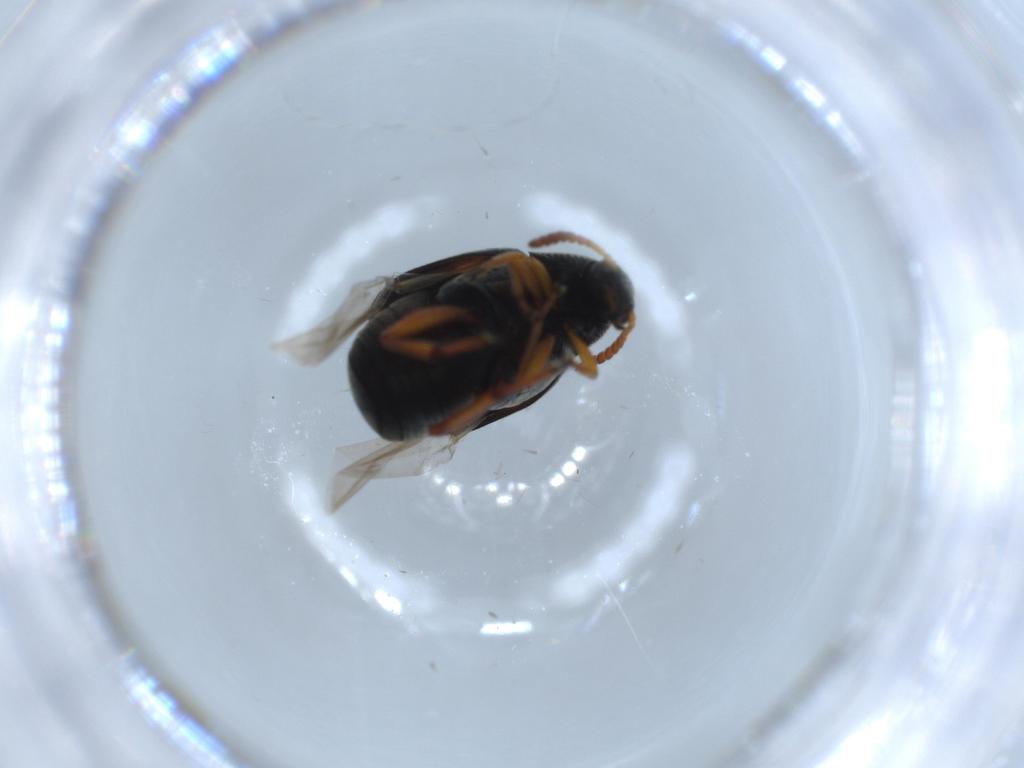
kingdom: Animalia
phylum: Arthropoda
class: Insecta
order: Coleoptera
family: Chrysomelidae
